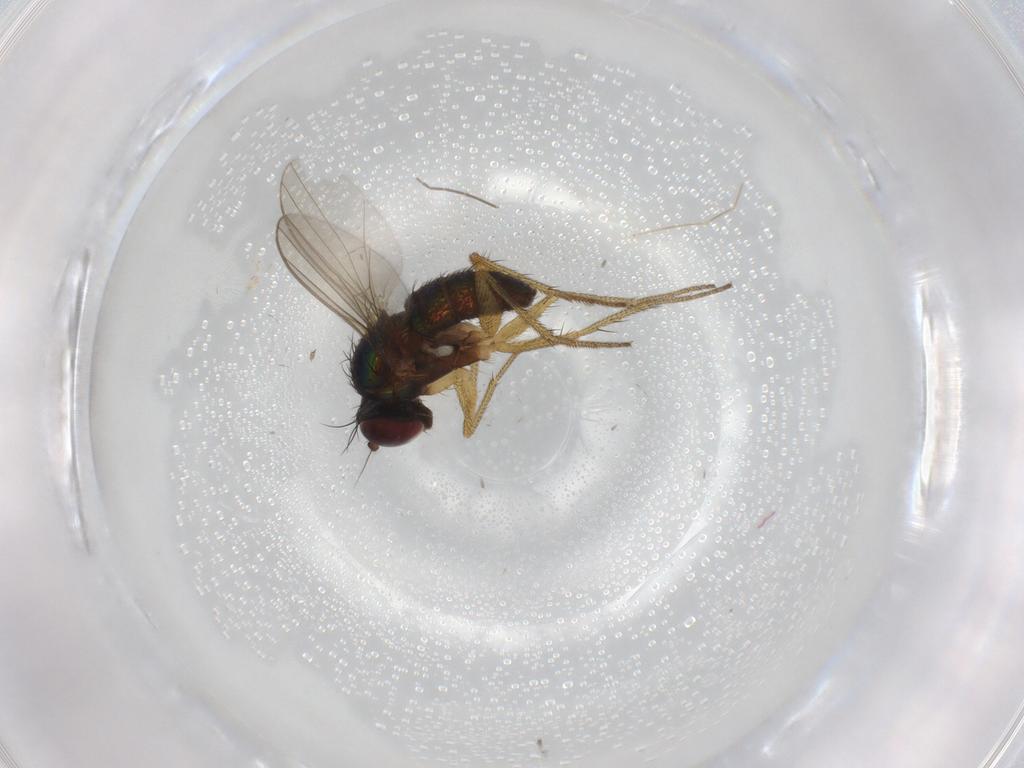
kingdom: Animalia
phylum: Arthropoda
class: Insecta
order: Diptera
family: Dolichopodidae
